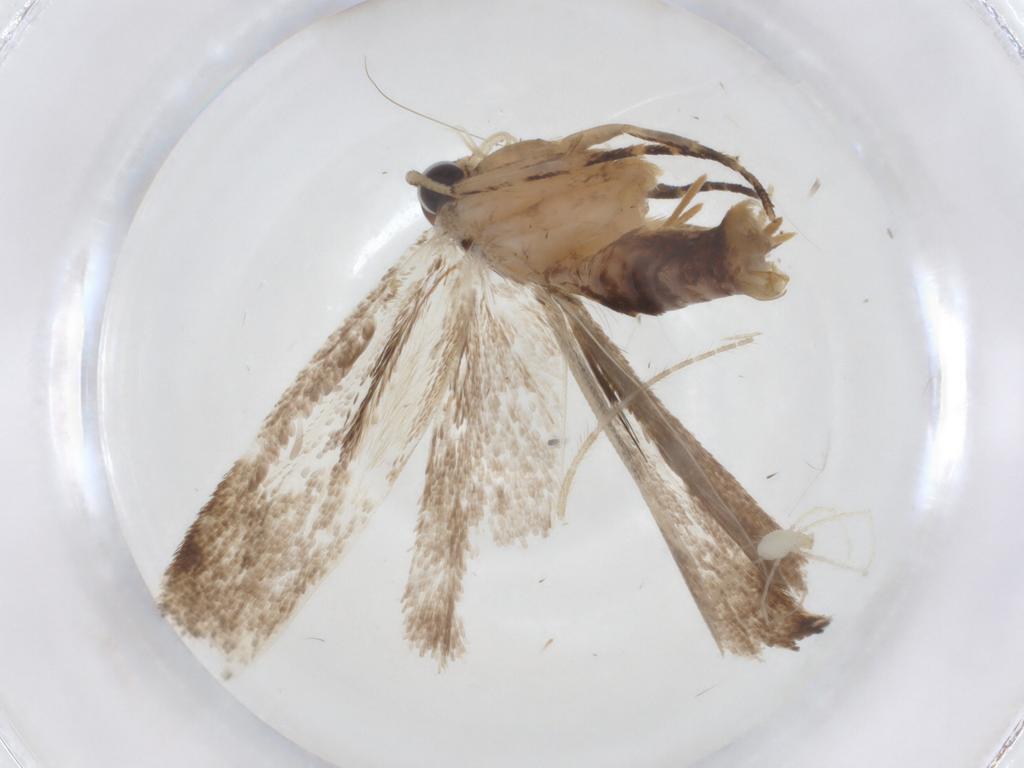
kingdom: Animalia
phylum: Arthropoda
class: Insecta
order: Lepidoptera
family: Gelechiidae
